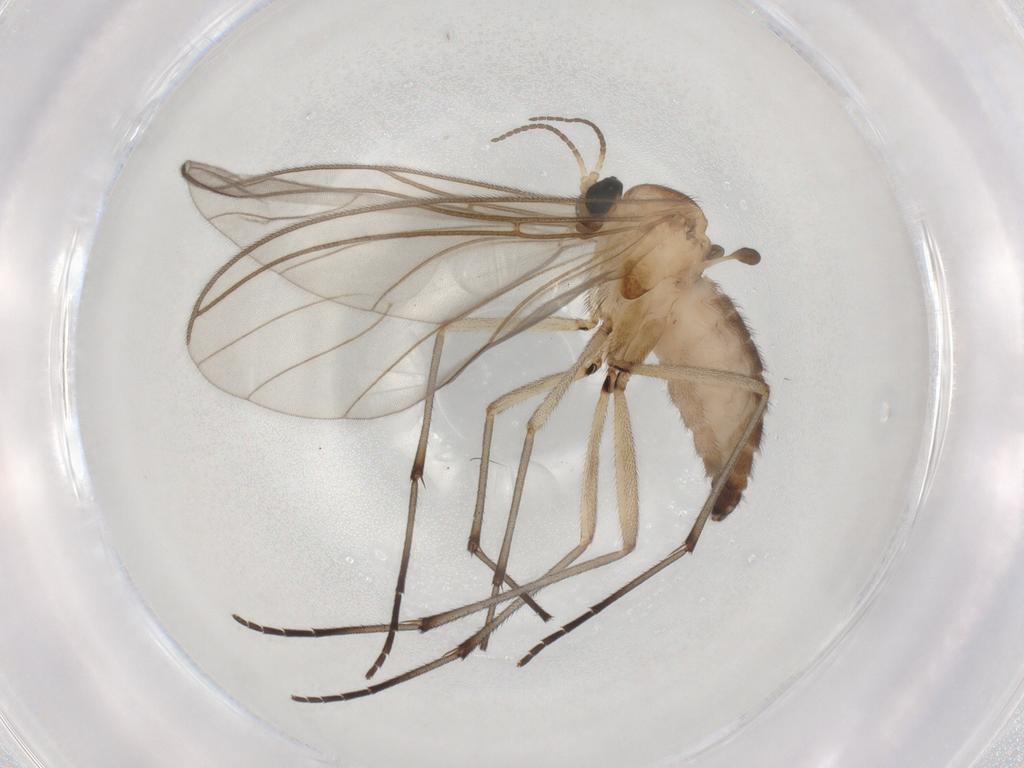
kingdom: Animalia
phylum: Arthropoda
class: Insecta
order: Diptera
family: Sciaridae
